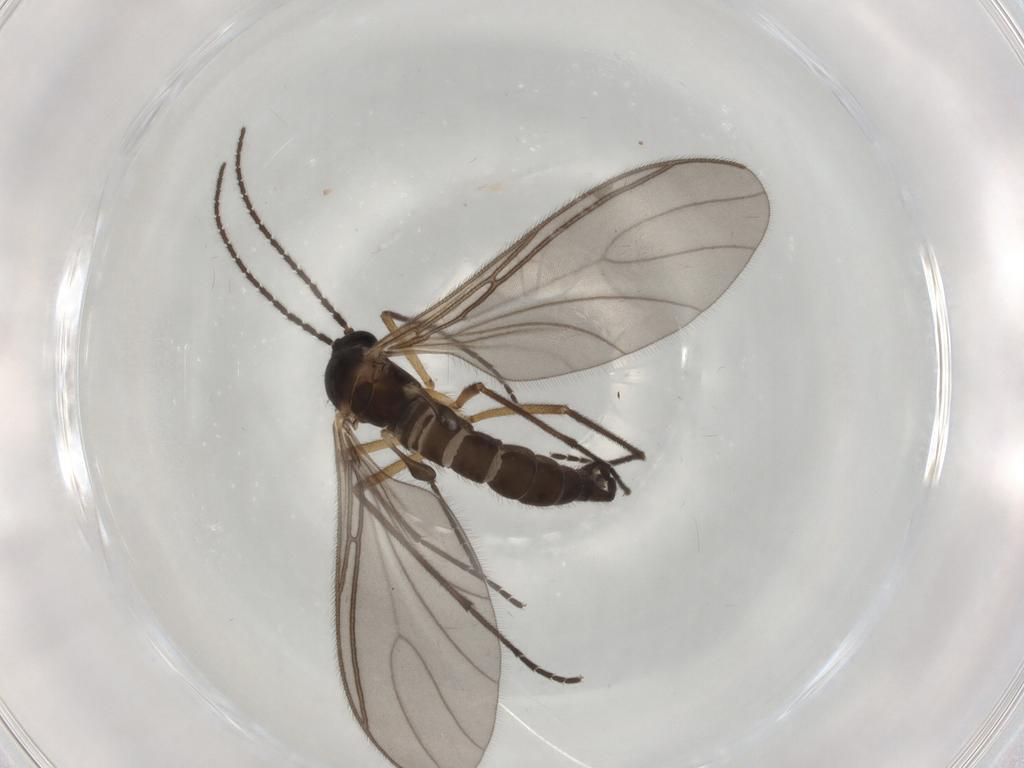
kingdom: Animalia
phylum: Arthropoda
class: Insecta
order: Diptera
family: Sciaridae
